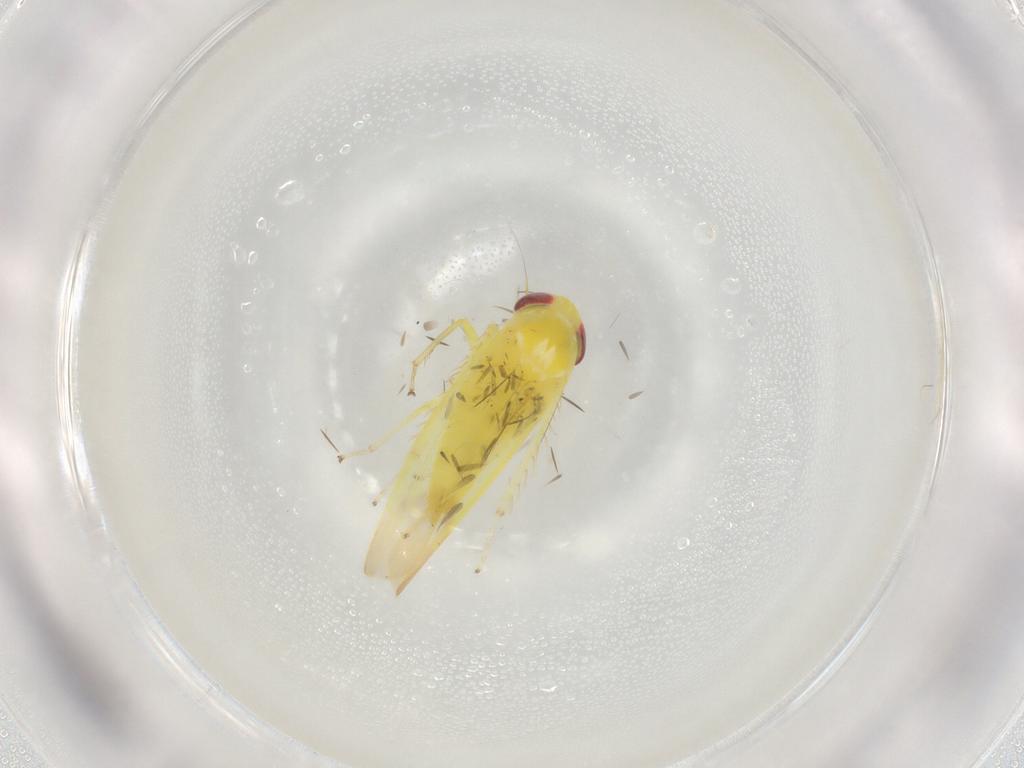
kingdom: Animalia
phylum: Arthropoda
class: Insecta
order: Hemiptera
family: Cicadellidae
